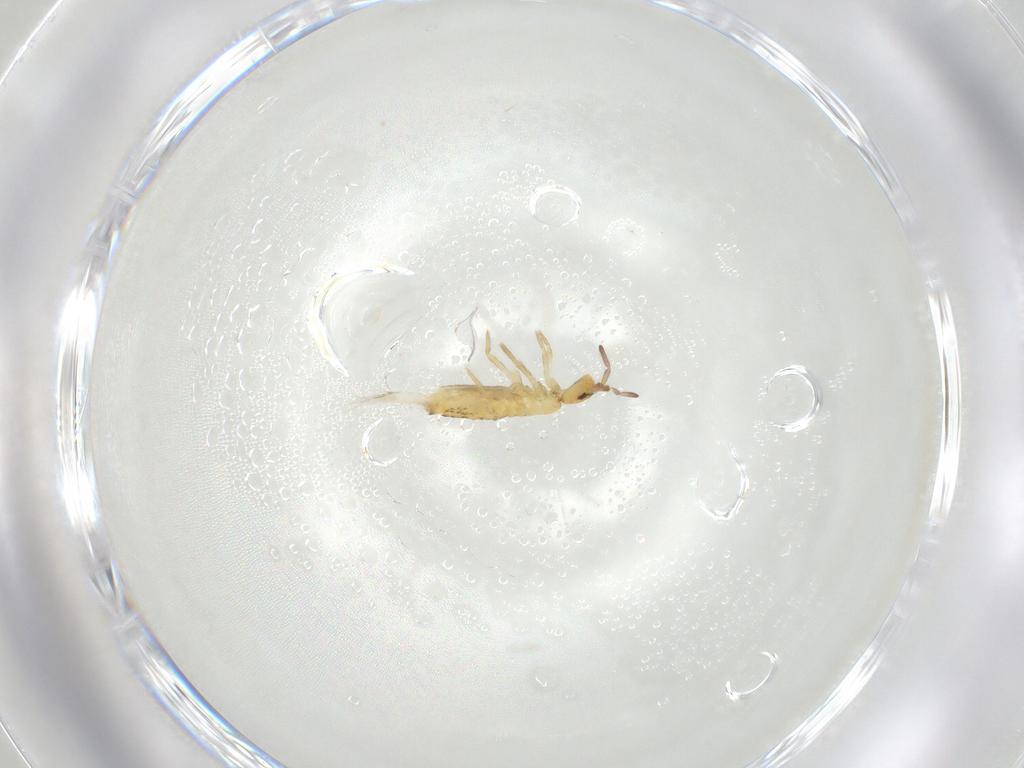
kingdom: Animalia
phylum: Arthropoda
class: Collembola
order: Entomobryomorpha
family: Entomobryidae
